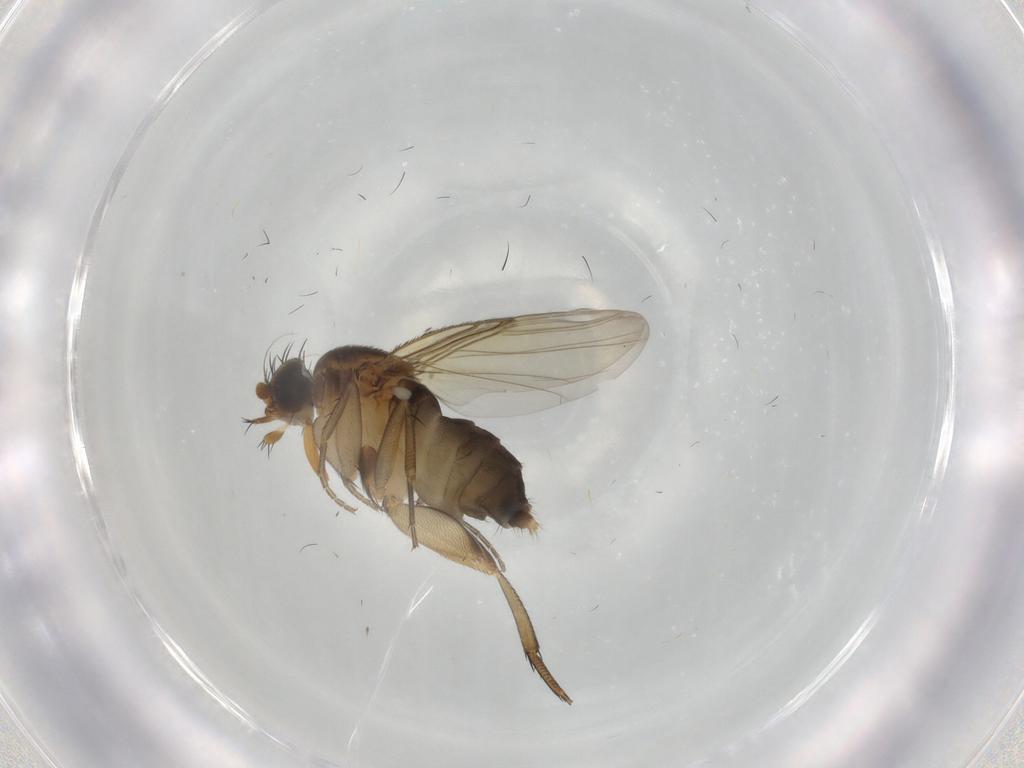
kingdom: Animalia
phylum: Arthropoda
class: Insecta
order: Diptera
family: Phoridae
